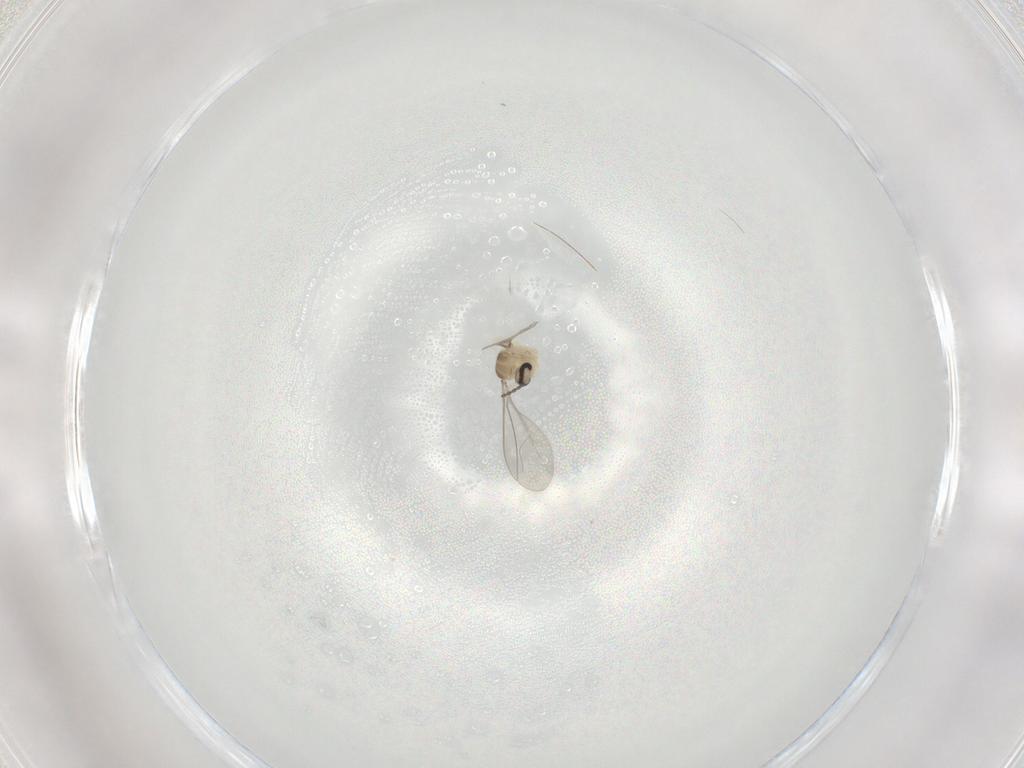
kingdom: Animalia
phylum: Arthropoda
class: Insecta
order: Diptera
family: Cecidomyiidae
